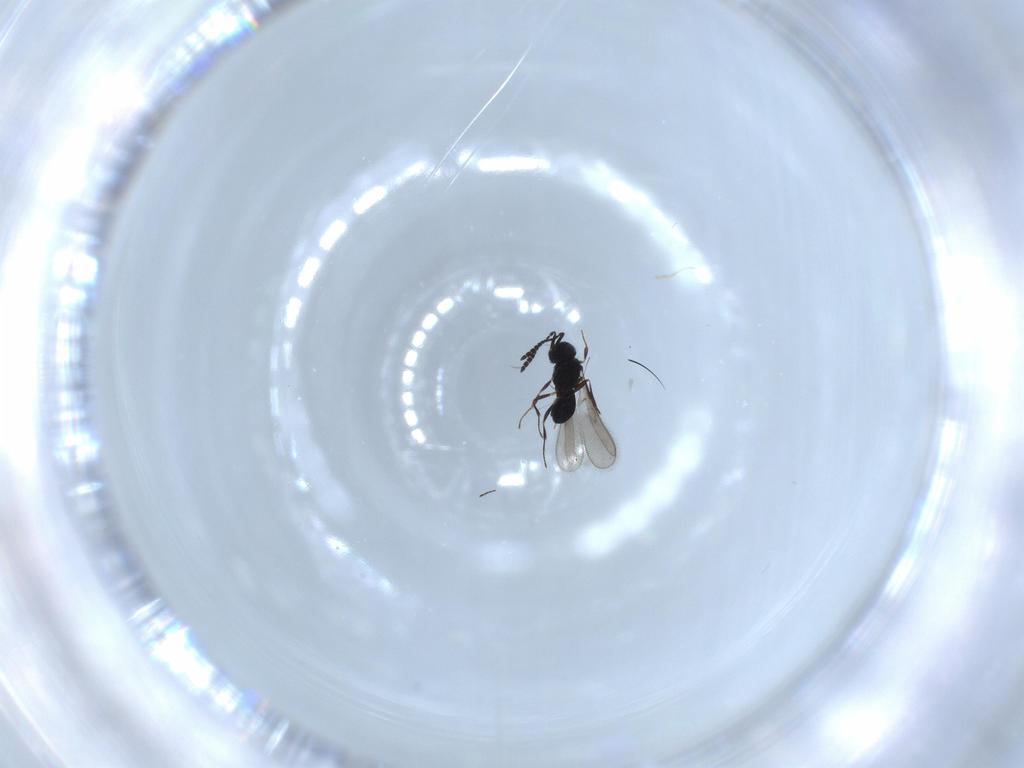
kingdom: Animalia
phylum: Arthropoda
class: Insecta
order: Hymenoptera
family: Scelionidae
